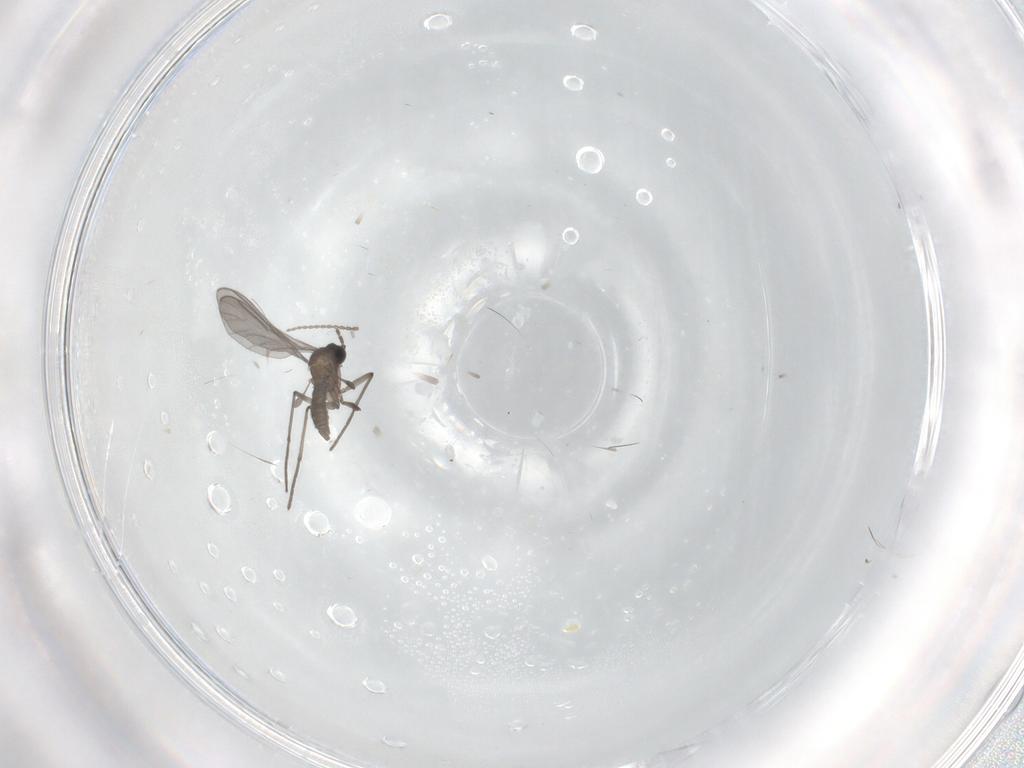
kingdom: Animalia
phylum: Arthropoda
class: Insecta
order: Diptera
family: Sciaridae
